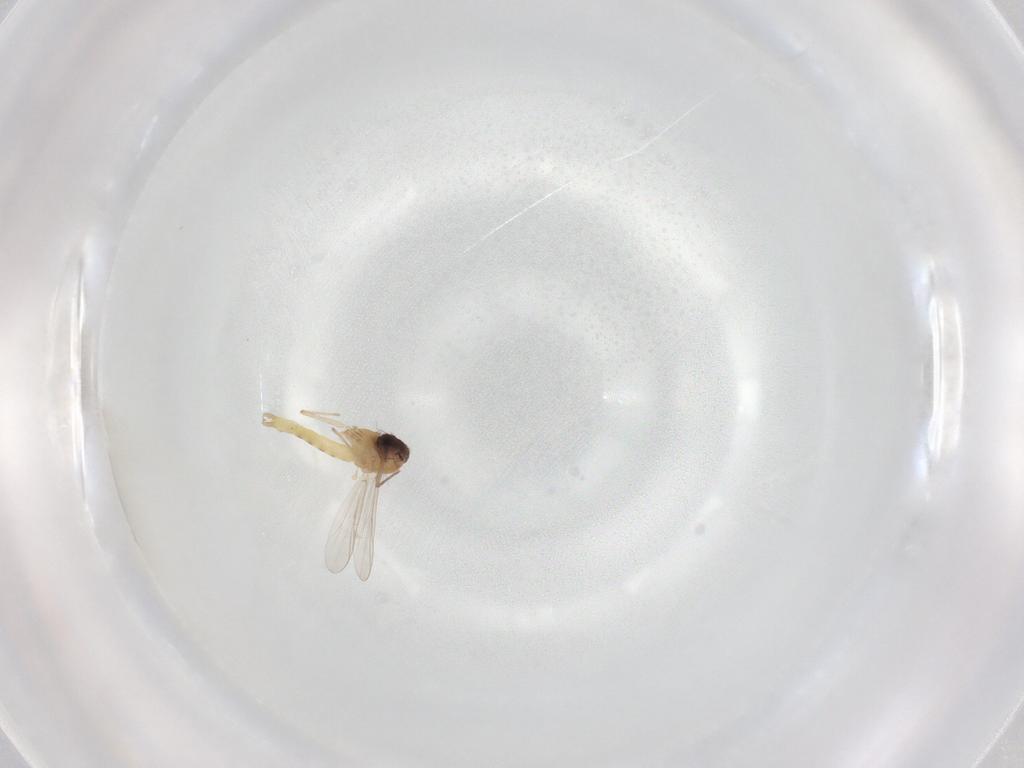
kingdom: Animalia
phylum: Arthropoda
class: Insecta
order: Diptera
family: Chironomidae
